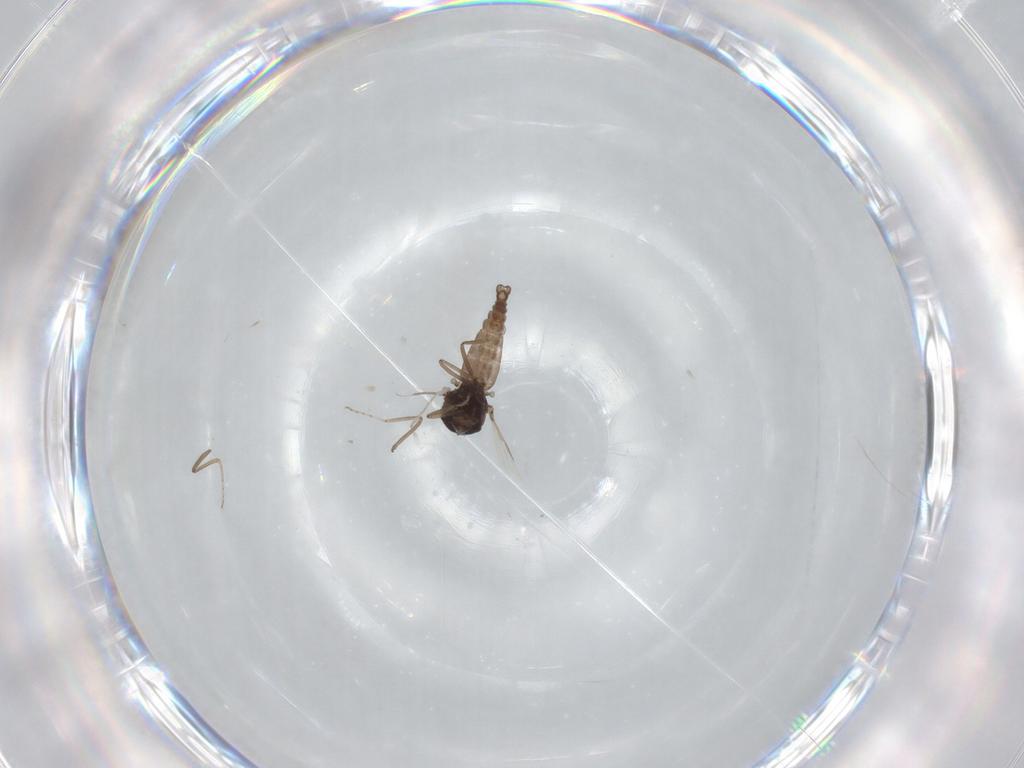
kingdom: Animalia
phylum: Arthropoda
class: Insecta
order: Diptera
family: Ceratopogonidae
